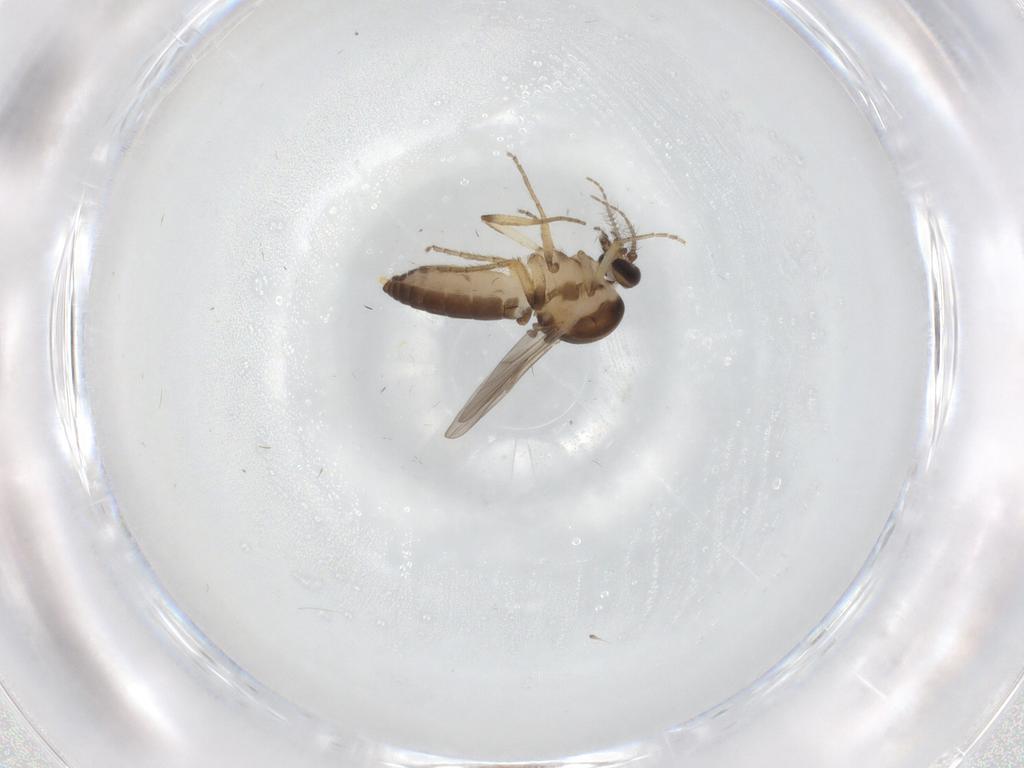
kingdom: Animalia
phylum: Arthropoda
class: Insecta
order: Diptera
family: Ceratopogonidae
